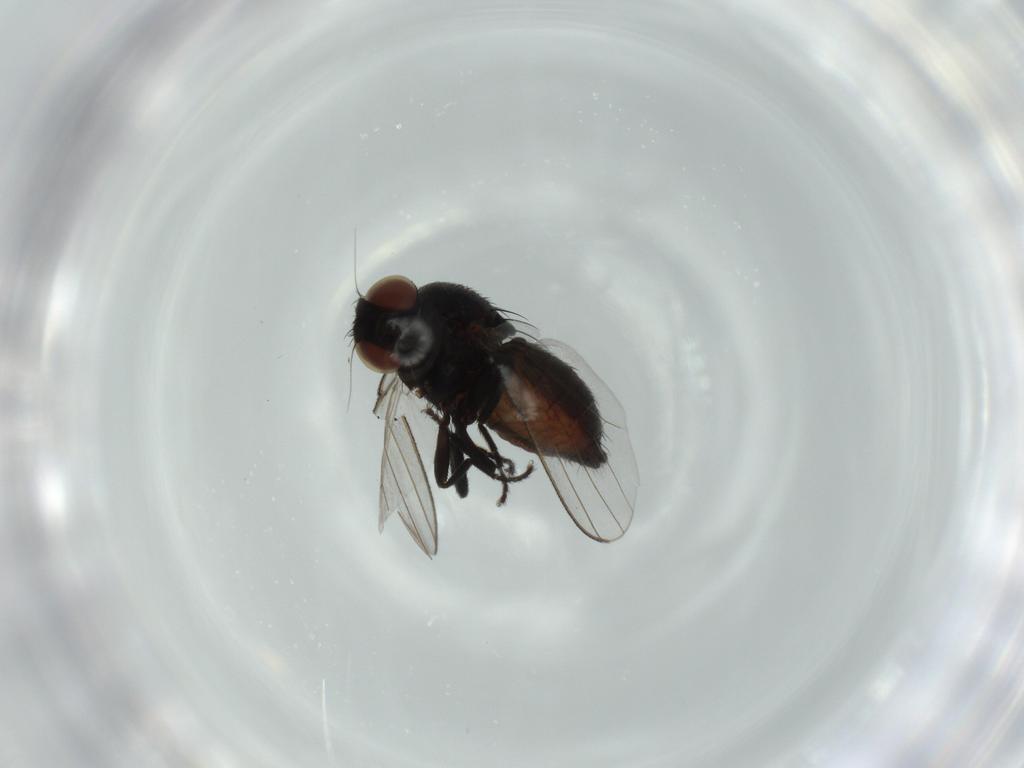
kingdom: Animalia
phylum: Arthropoda
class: Insecta
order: Diptera
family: Milichiidae
